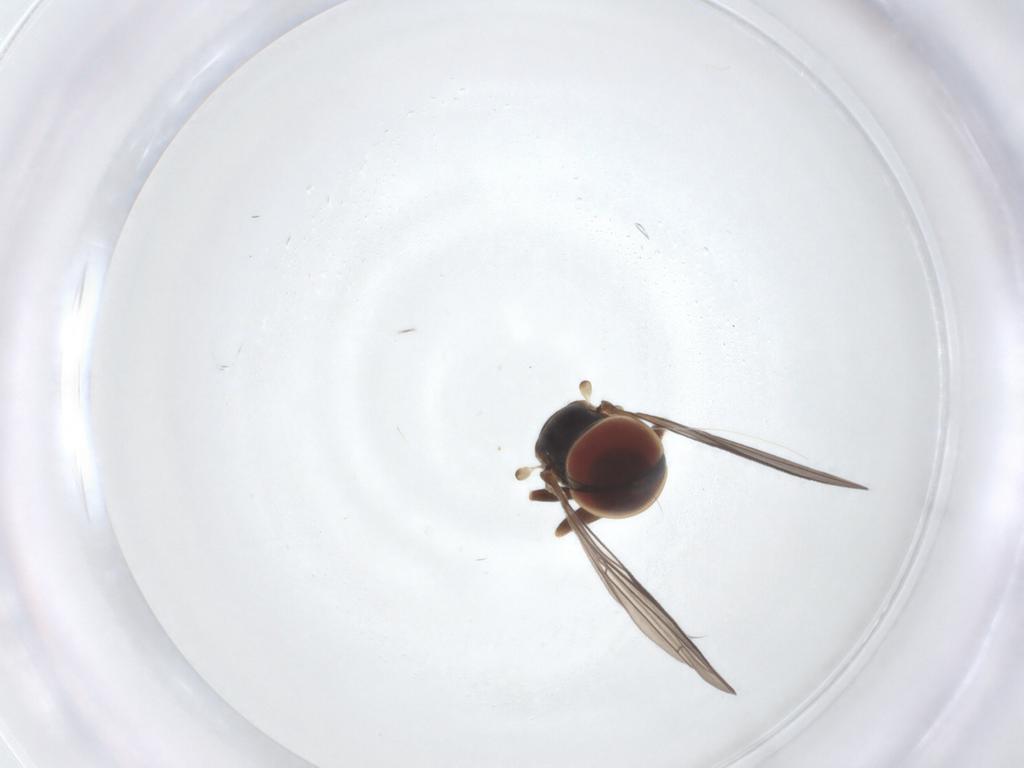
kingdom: Animalia
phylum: Arthropoda
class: Insecta
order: Diptera
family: Pipunculidae
